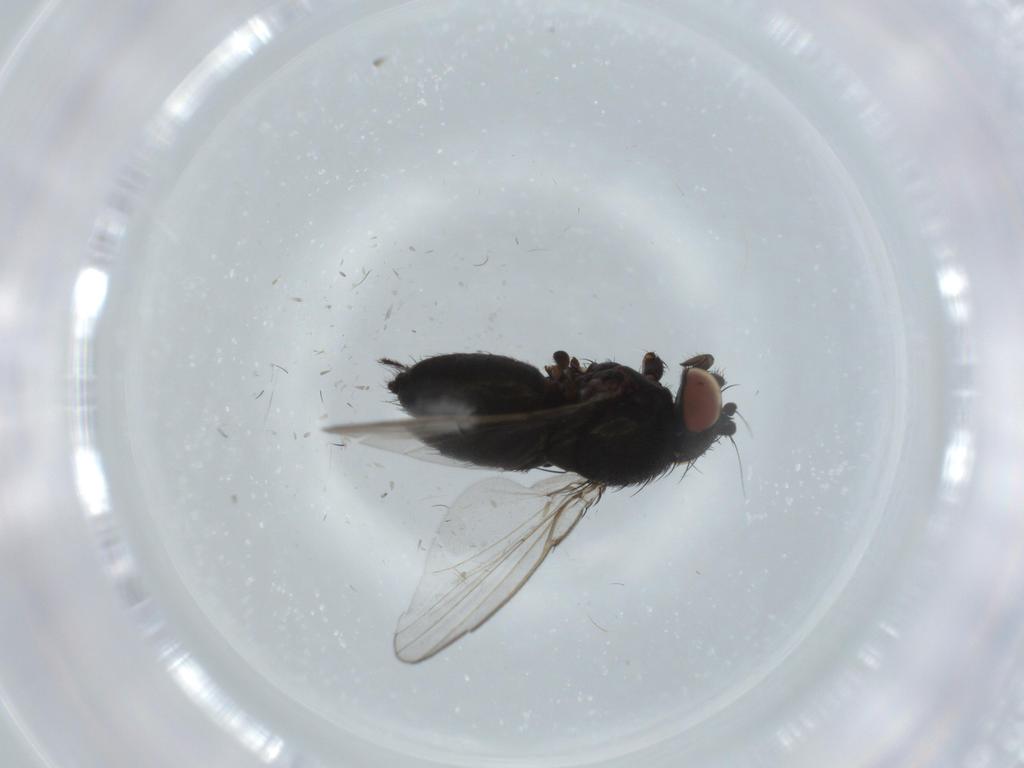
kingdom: Animalia
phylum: Arthropoda
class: Insecta
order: Diptera
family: Milichiidae
